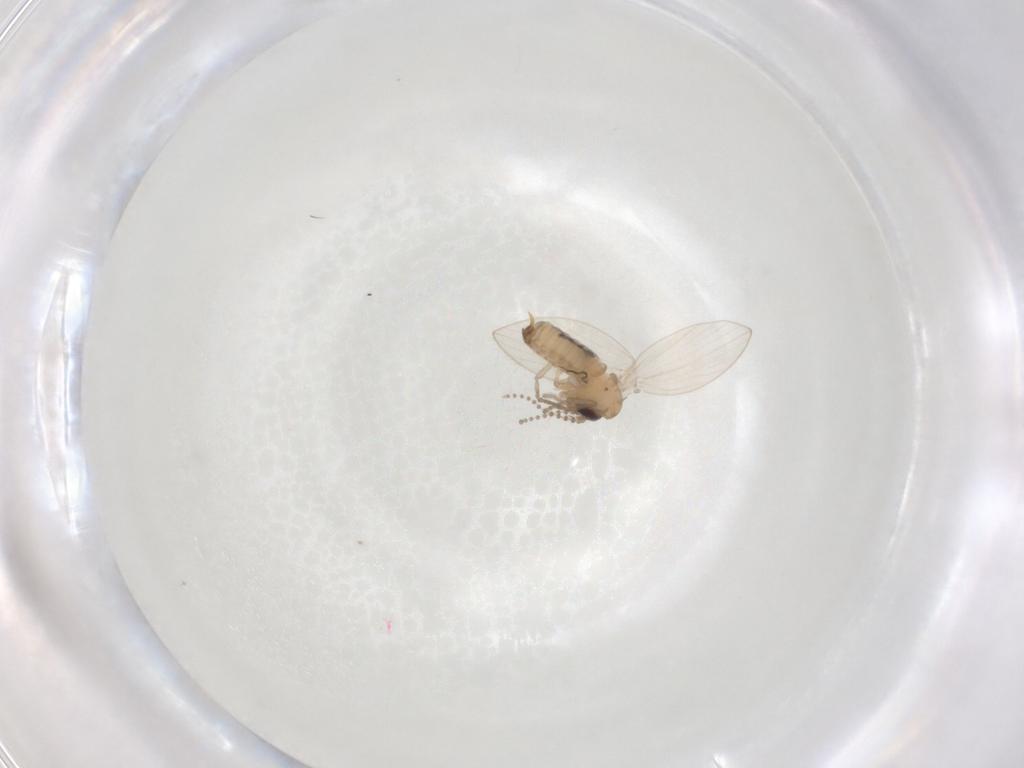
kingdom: Animalia
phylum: Arthropoda
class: Insecta
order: Diptera
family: Psychodidae
